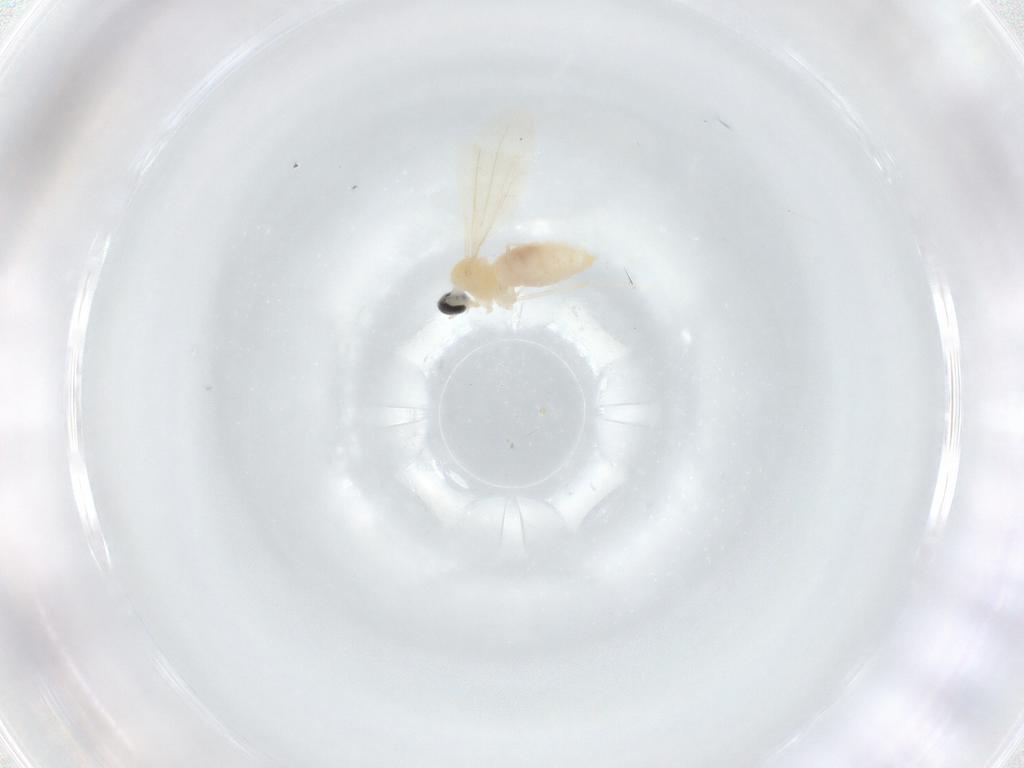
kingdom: Animalia
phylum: Arthropoda
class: Insecta
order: Diptera
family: Cecidomyiidae
